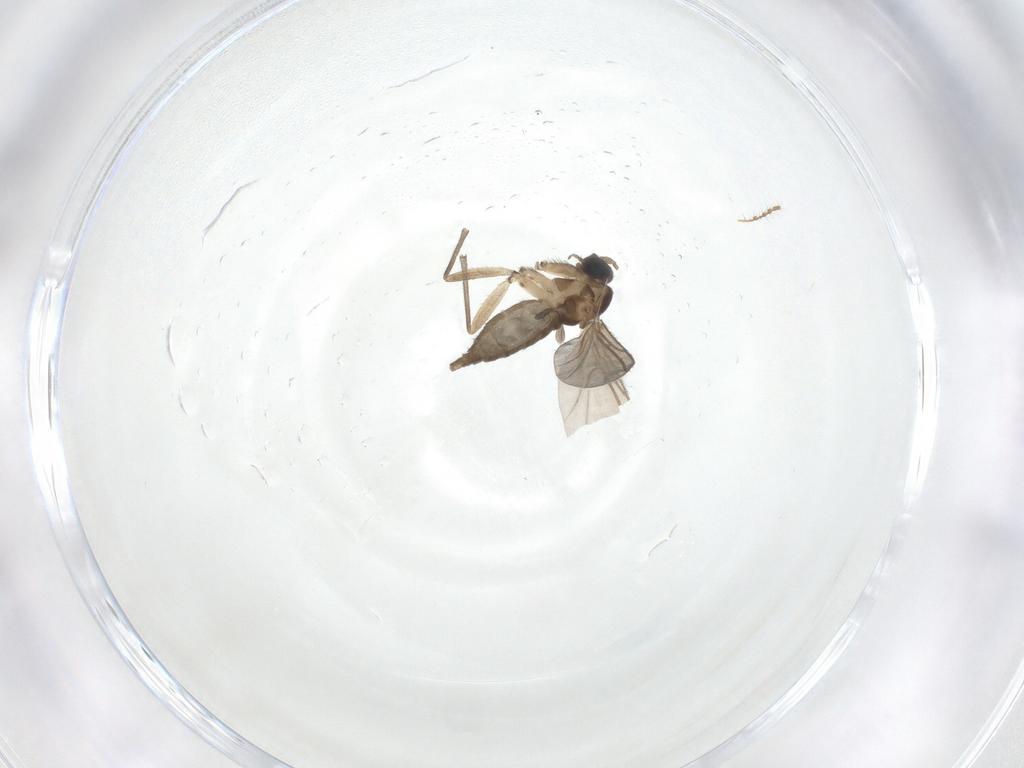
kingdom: Animalia
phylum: Arthropoda
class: Insecta
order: Diptera
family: Sciaridae
